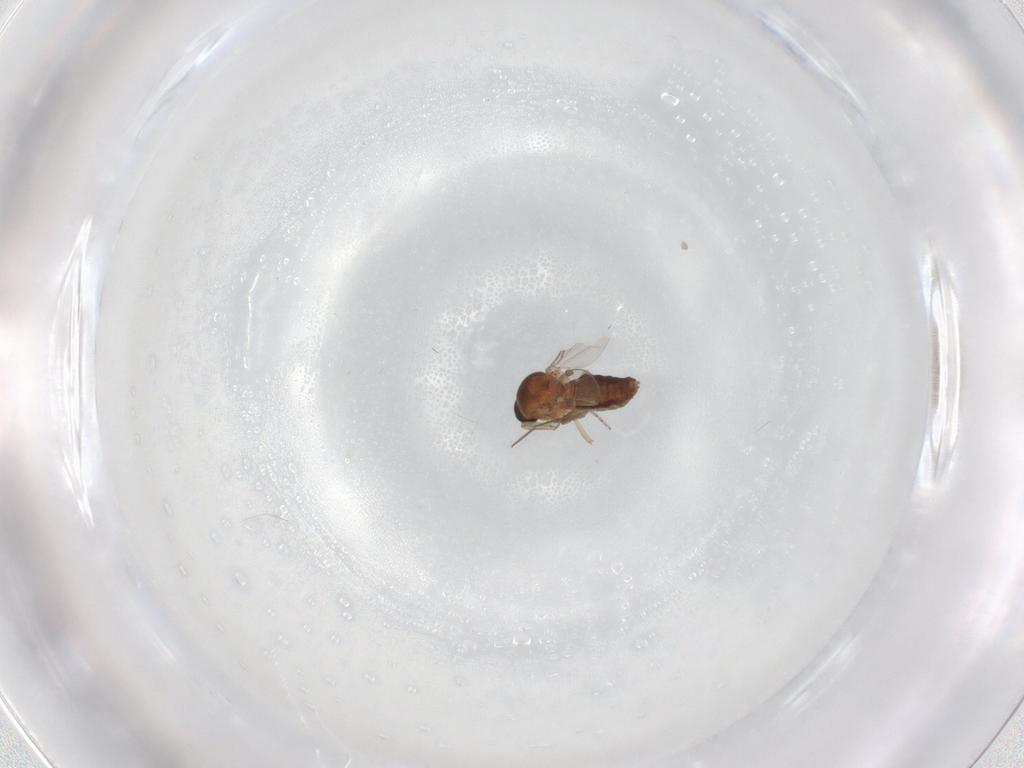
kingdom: Animalia
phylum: Arthropoda
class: Insecta
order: Diptera
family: Ceratopogonidae
